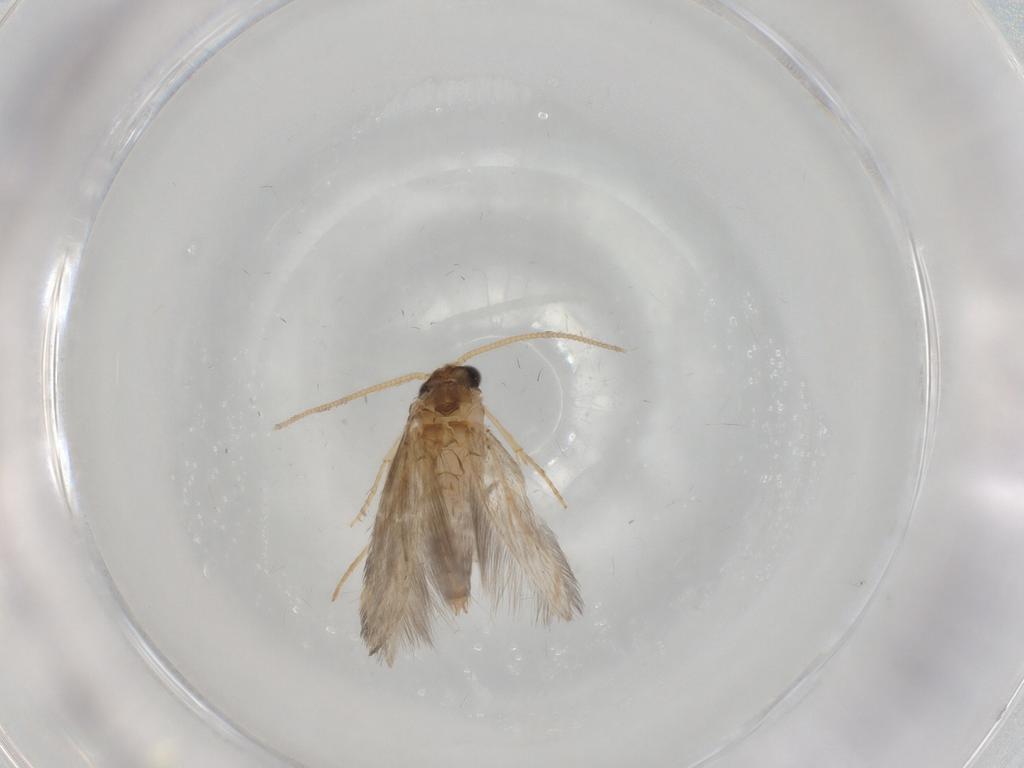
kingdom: Animalia
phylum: Arthropoda
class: Insecta
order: Trichoptera
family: Hydroptilidae
